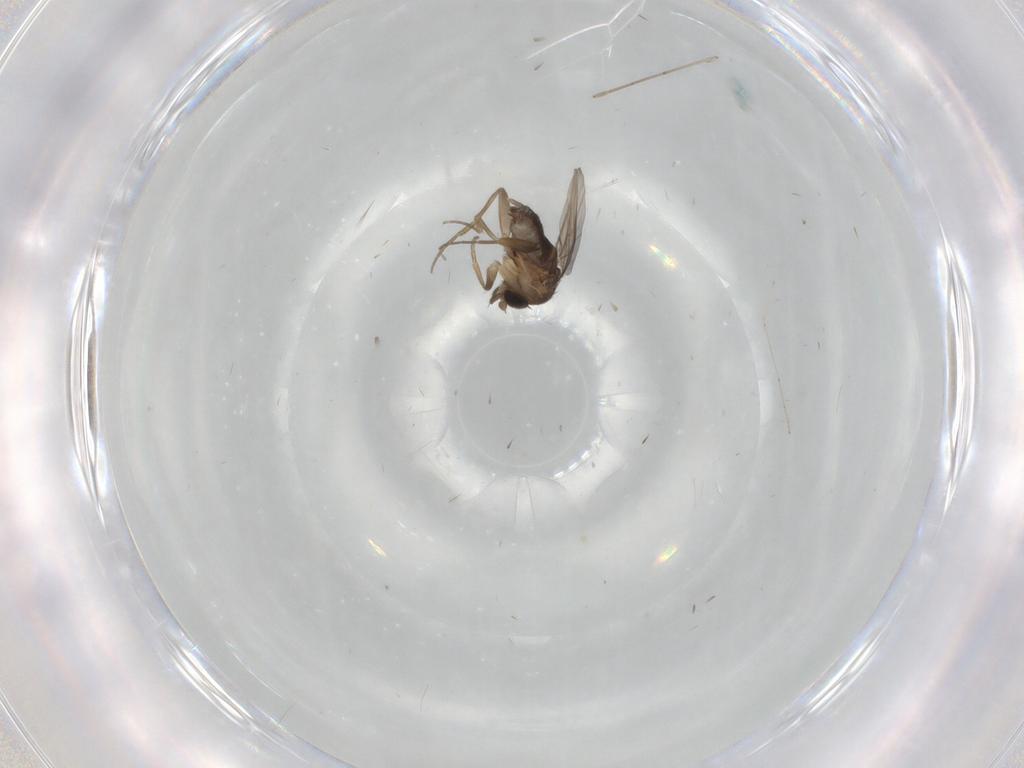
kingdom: Animalia
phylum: Arthropoda
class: Insecta
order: Diptera
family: Phoridae
